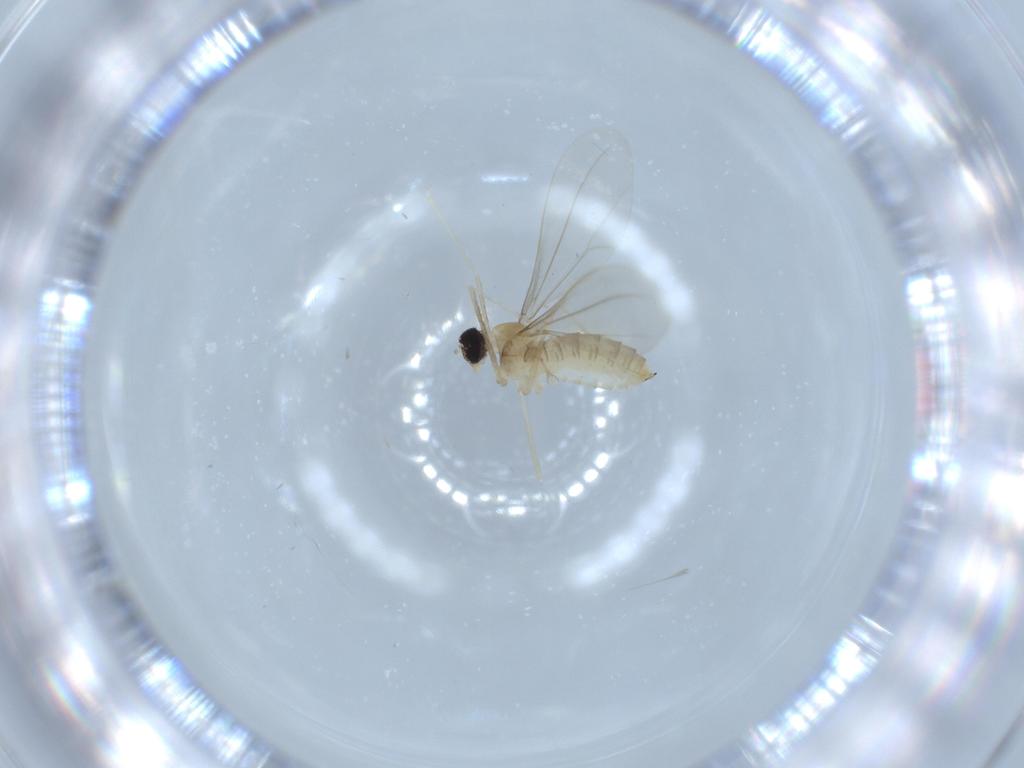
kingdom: Animalia
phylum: Arthropoda
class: Insecta
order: Diptera
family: Cecidomyiidae
